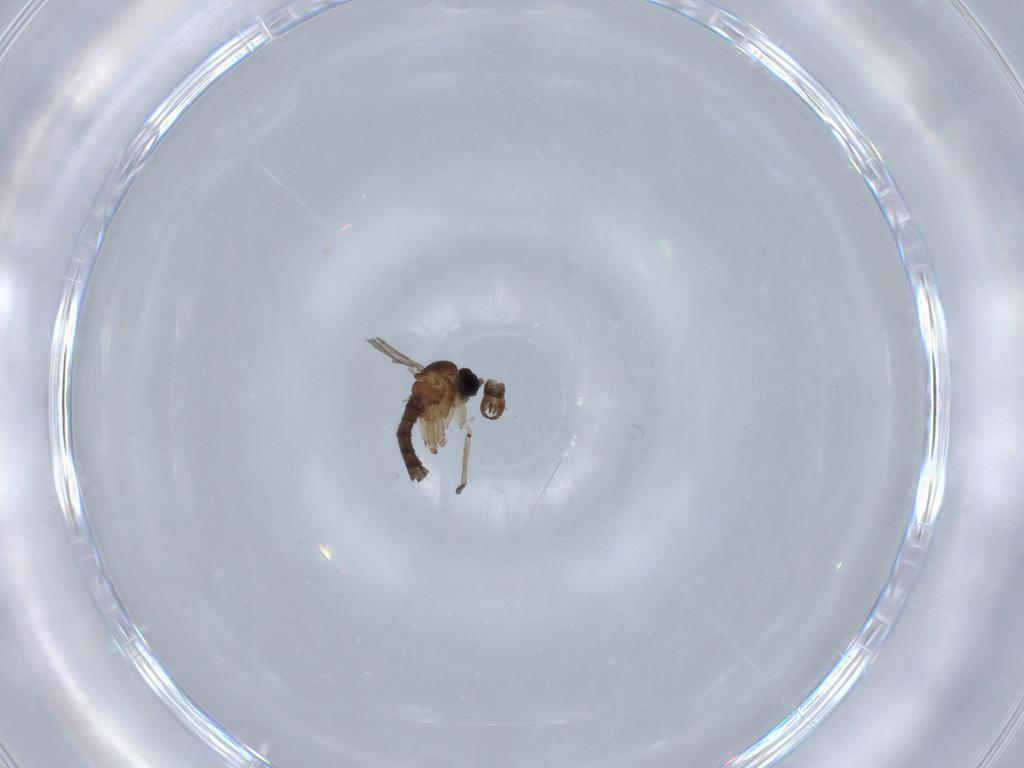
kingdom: Animalia
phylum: Arthropoda
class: Insecta
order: Diptera
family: Sciaridae
